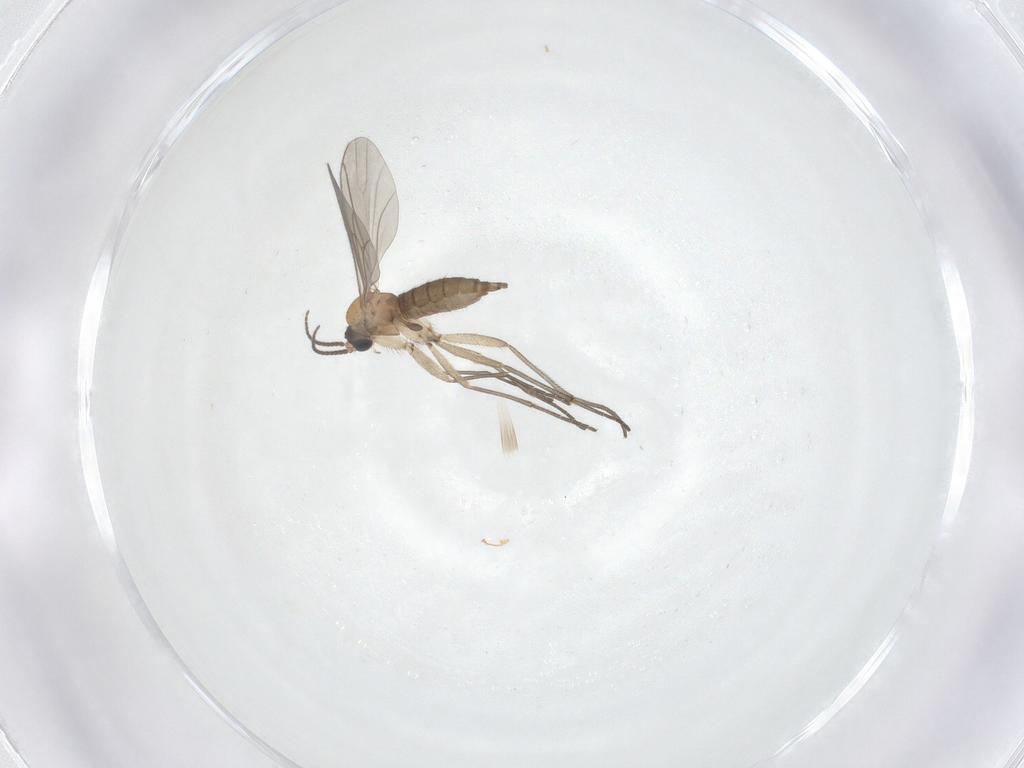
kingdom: Animalia
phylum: Arthropoda
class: Insecta
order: Diptera
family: Sciaridae
